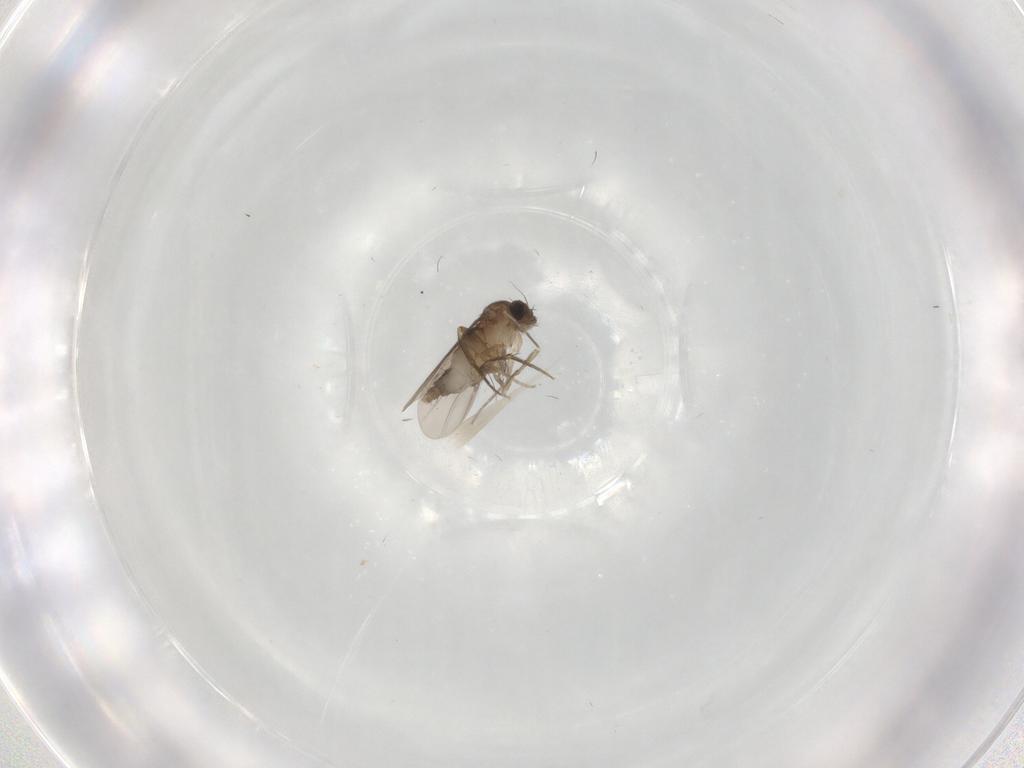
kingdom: Animalia
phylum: Arthropoda
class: Insecta
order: Diptera
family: Phoridae
